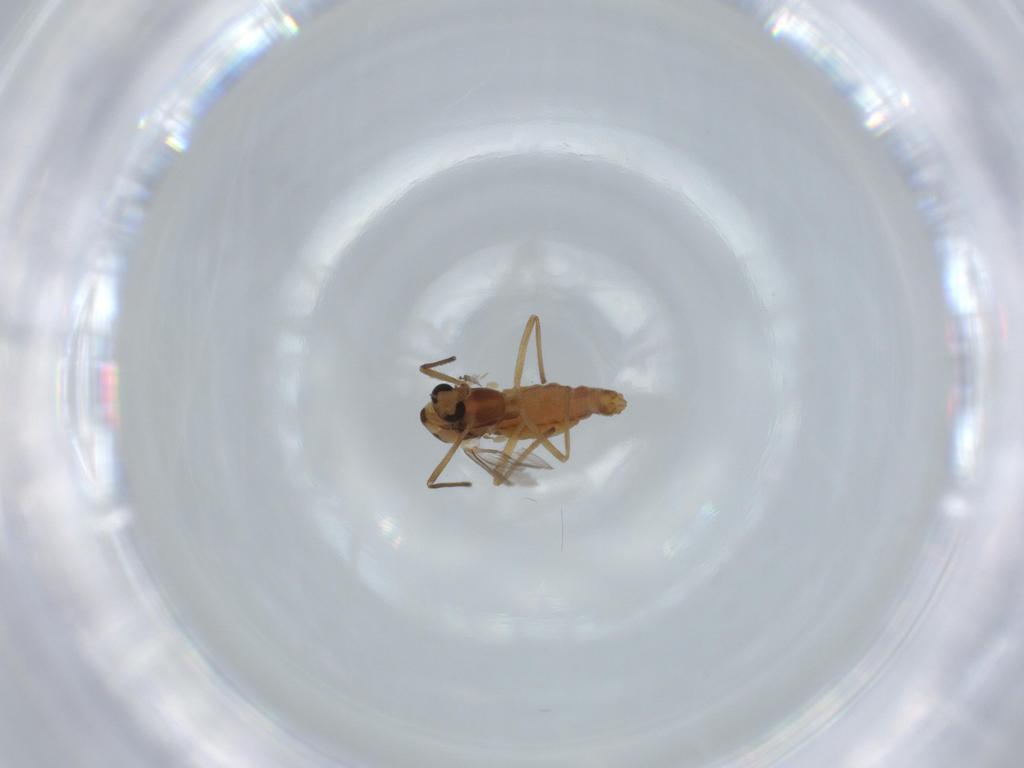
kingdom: Animalia
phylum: Arthropoda
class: Insecta
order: Diptera
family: Chironomidae
